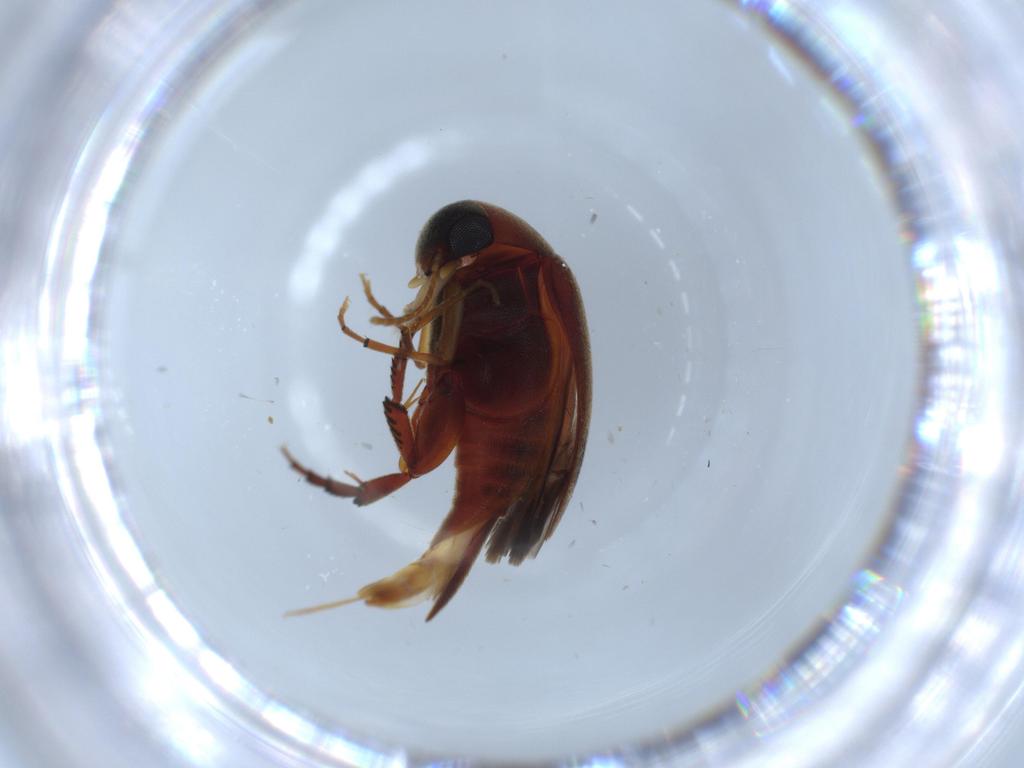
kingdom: Animalia
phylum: Arthropoda
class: Insecta
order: Coleoptera
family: Mordellidae
